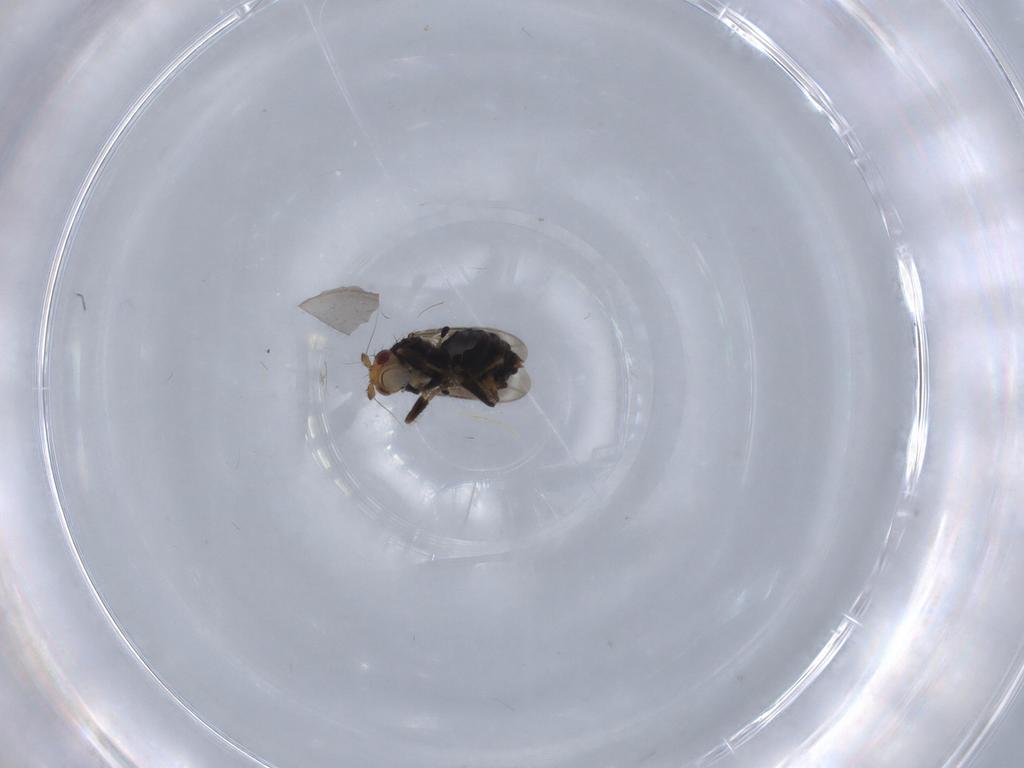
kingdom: Animalia
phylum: Arthropoda
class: Insecta
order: Diptera
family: Sphaeroceridae
